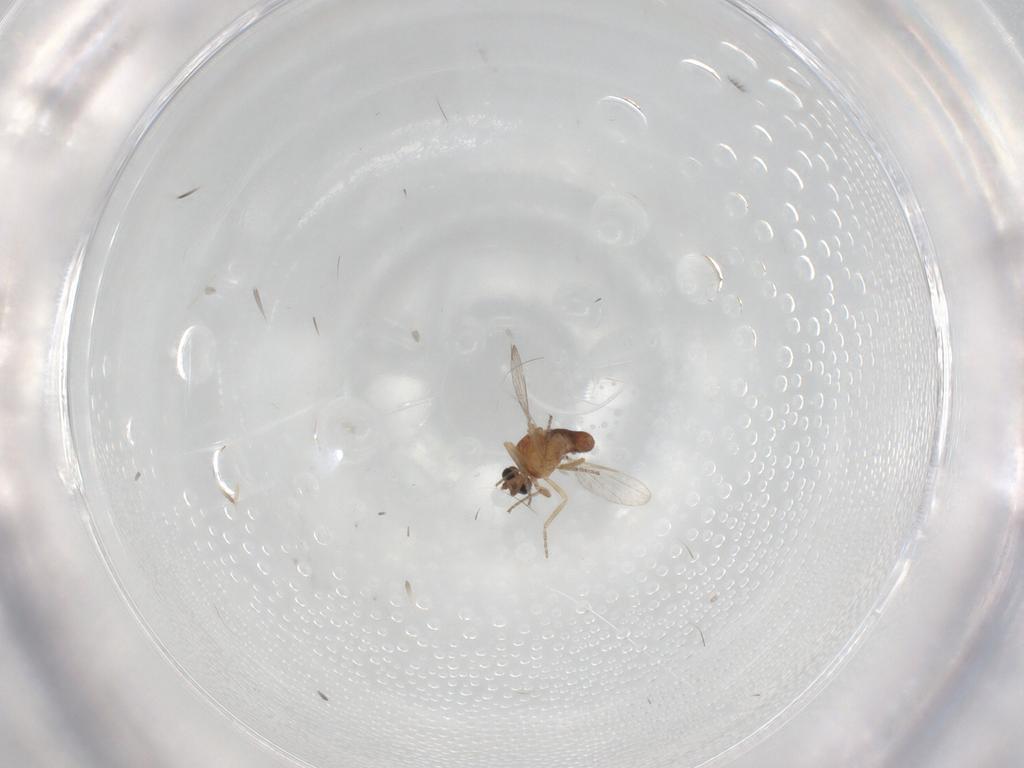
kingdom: Animalia
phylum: Arthropoda
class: Insecta
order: Diptera
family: Ceratopogonidae
